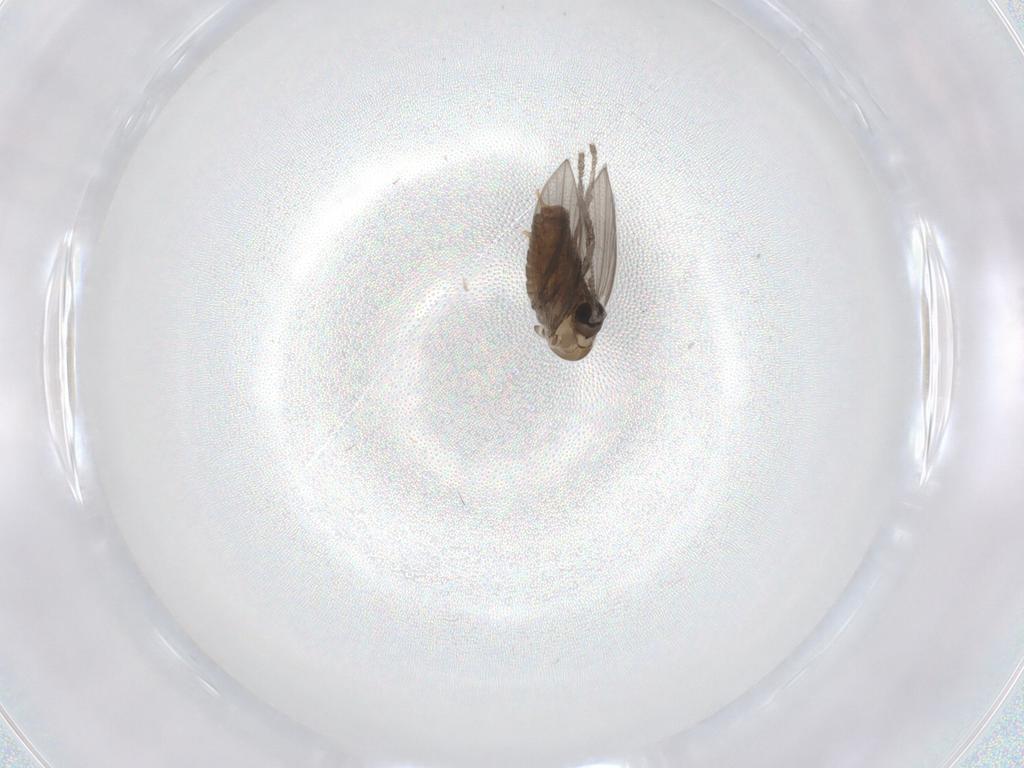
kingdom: Animalia
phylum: Arthropoda
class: Insecta
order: Diptera
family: Psychodidae
